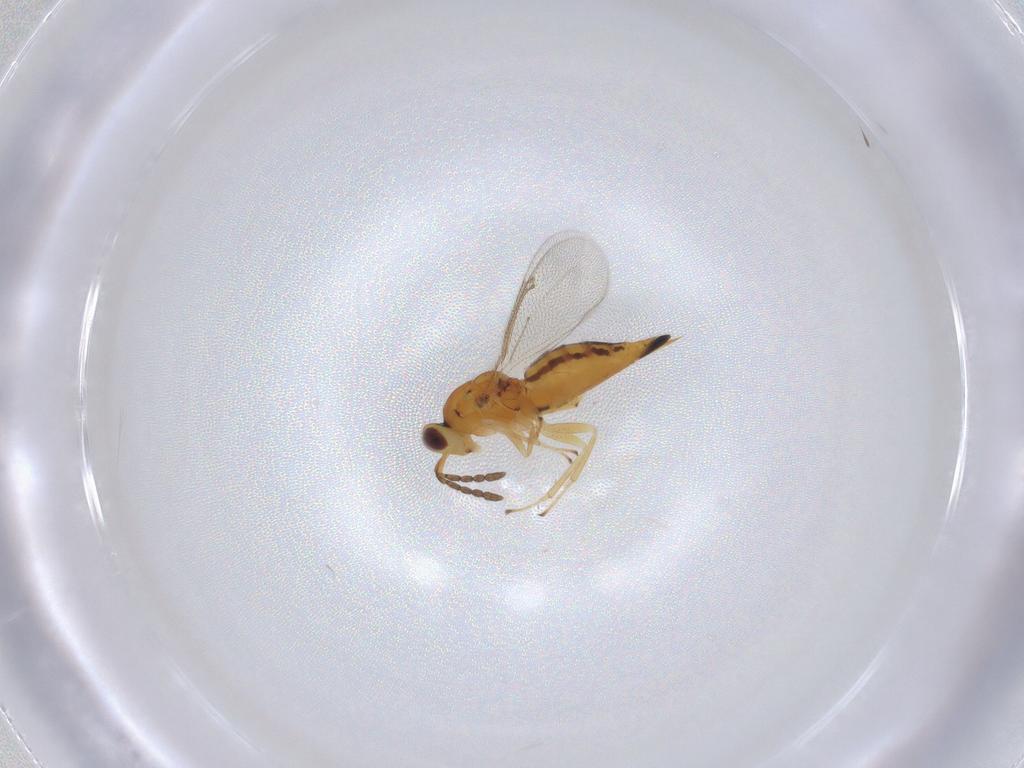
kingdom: Animalia
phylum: Arthropoda
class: Insecta
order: Hymenoptera
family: Eulophidae
